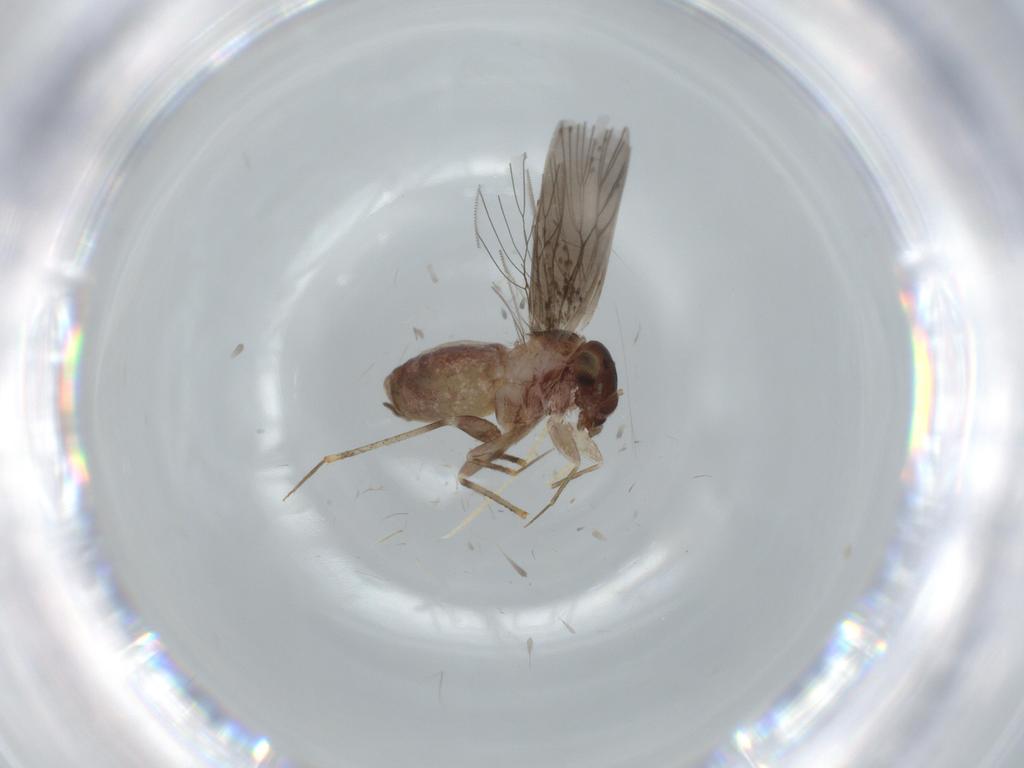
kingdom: Animalia
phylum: Arthropoda
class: Insecta
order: Psocodea
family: Lepidopsocidae
